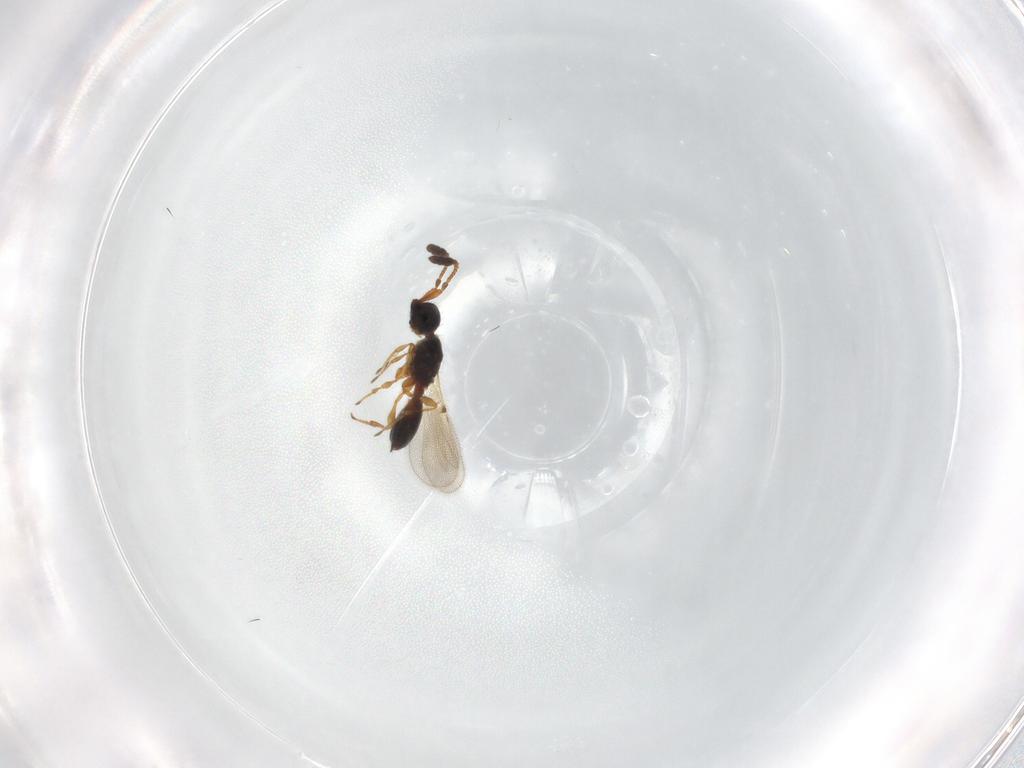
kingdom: Animalia
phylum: Arthropoda
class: Insecta
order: Hymenoptera
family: Diapriidae
